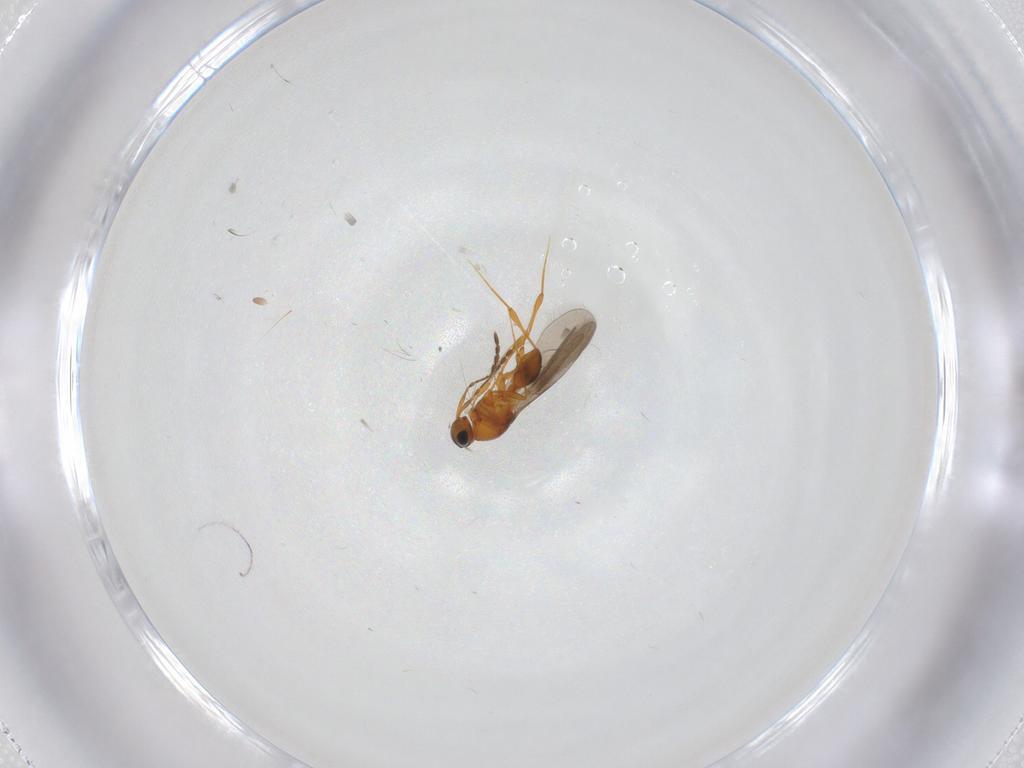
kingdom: Animalia
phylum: Arthropoda
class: Insecta
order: Hymenoptera
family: Platygastridae
